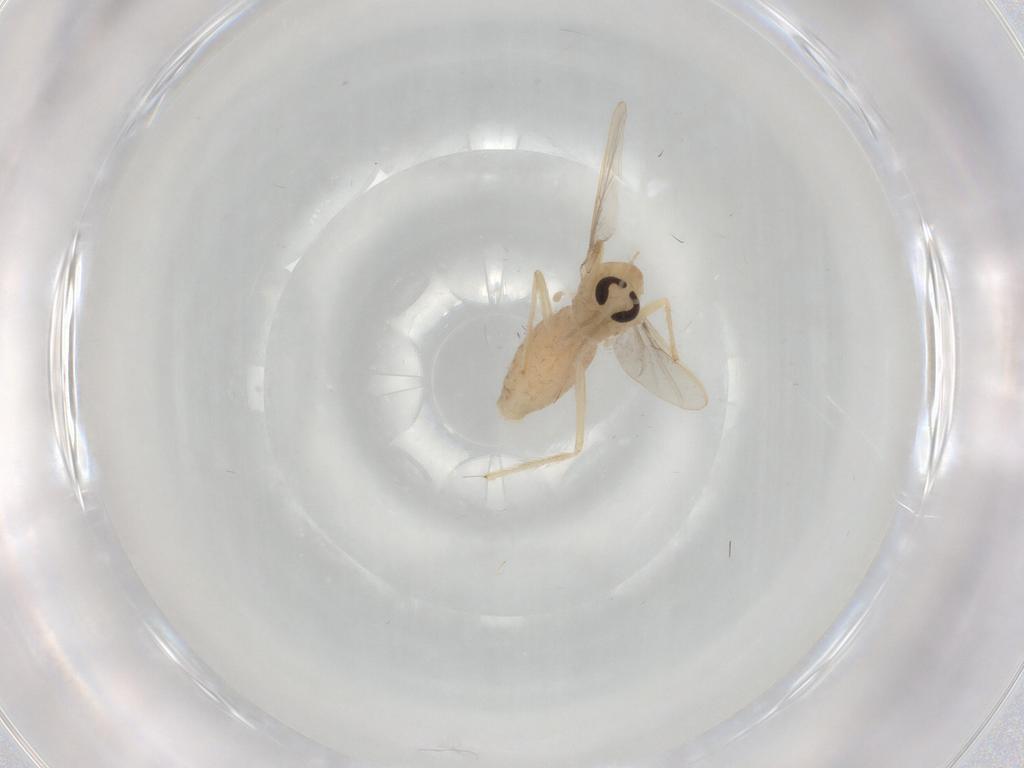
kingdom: Animalia
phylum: Arthropoda
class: Insecta
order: Diptera
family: Chironomidae
